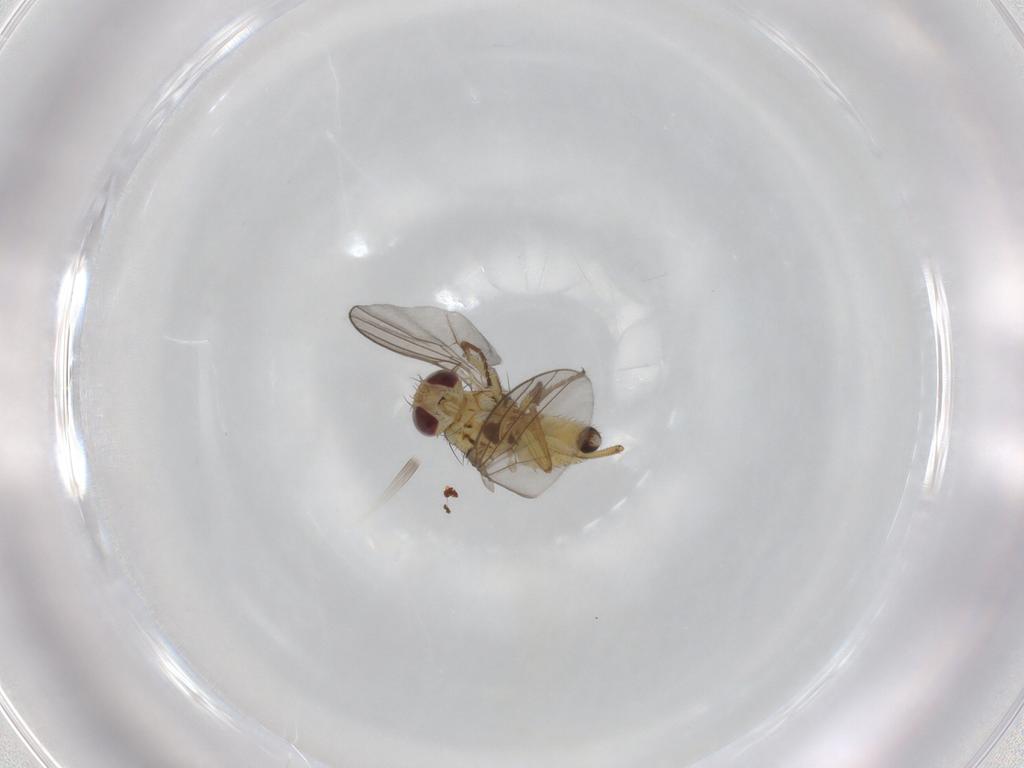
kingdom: Animalia
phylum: Arthropoda
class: Insecta
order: Diptera
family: Agromyzidae
